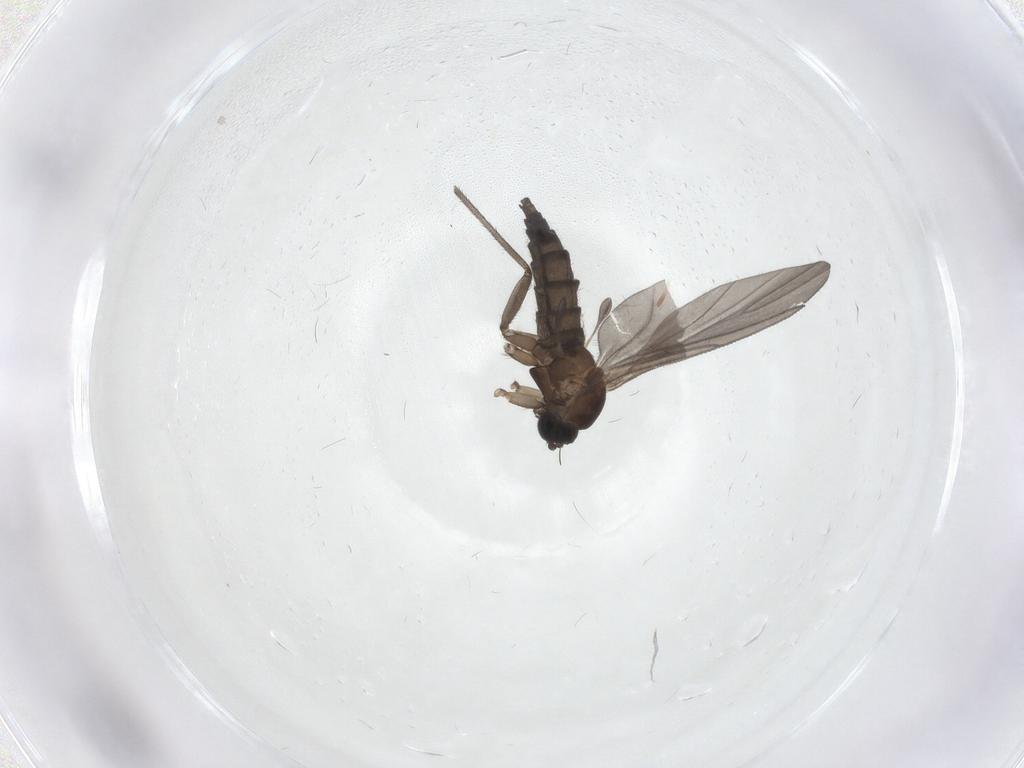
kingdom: Animalia
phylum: Arthropoda
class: Insecta
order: Diptera
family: Sciaridae
